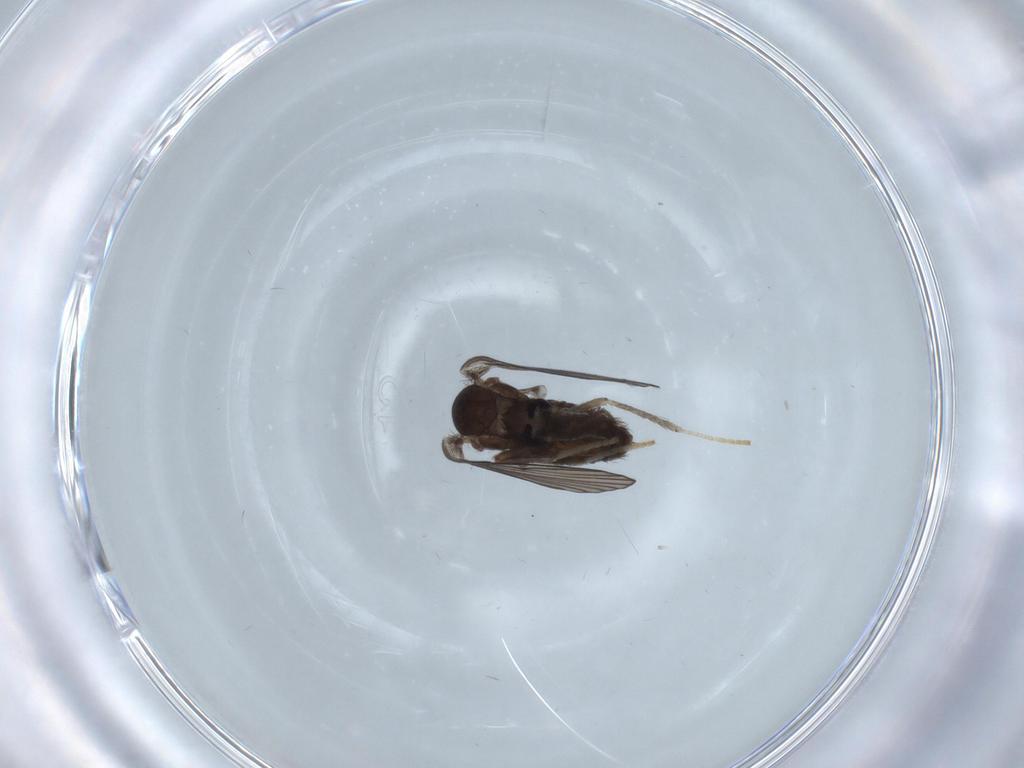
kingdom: Animalia
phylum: Arthropoda
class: Insecta
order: Diptera
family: Psychodidae
